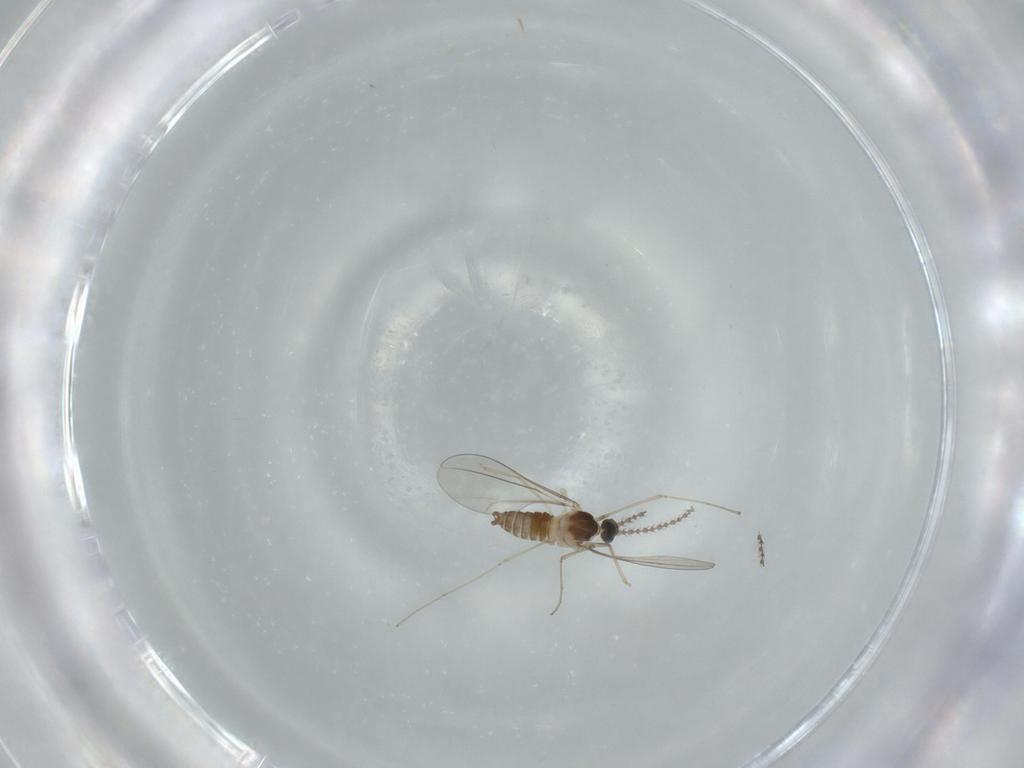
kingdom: Animalia
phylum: Arthropoda
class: Insecta
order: Diptera
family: Cecidomyiidae
